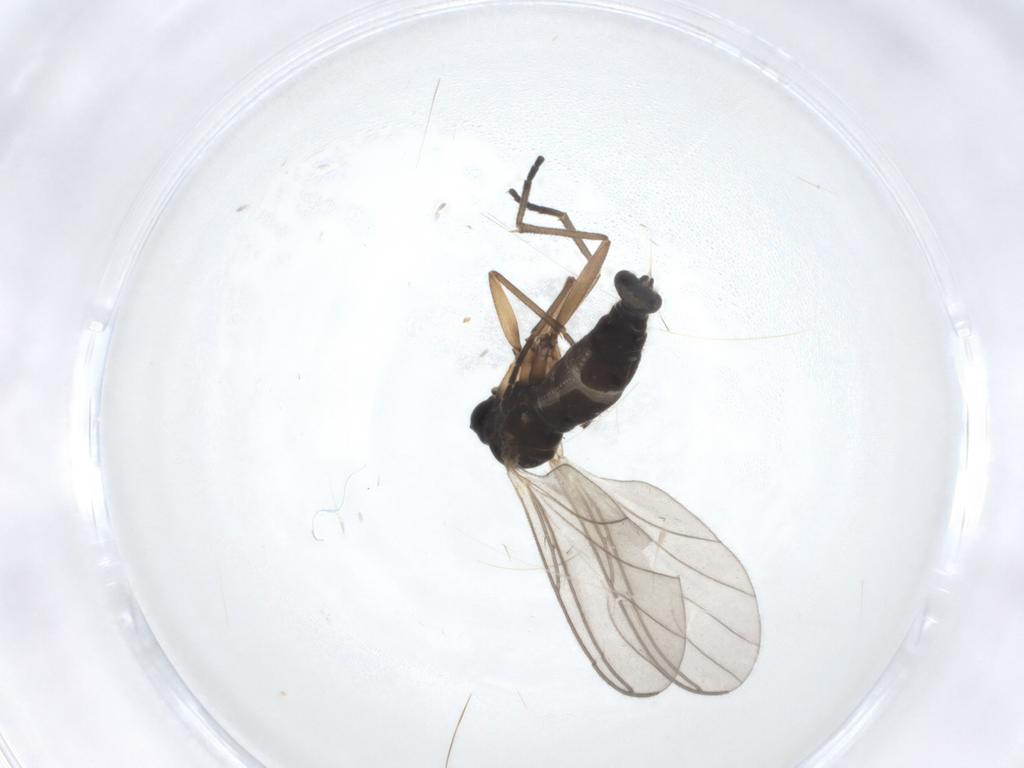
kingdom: Animalia
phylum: Arthropoda
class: Insecta
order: Diptera
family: Sciaridae
